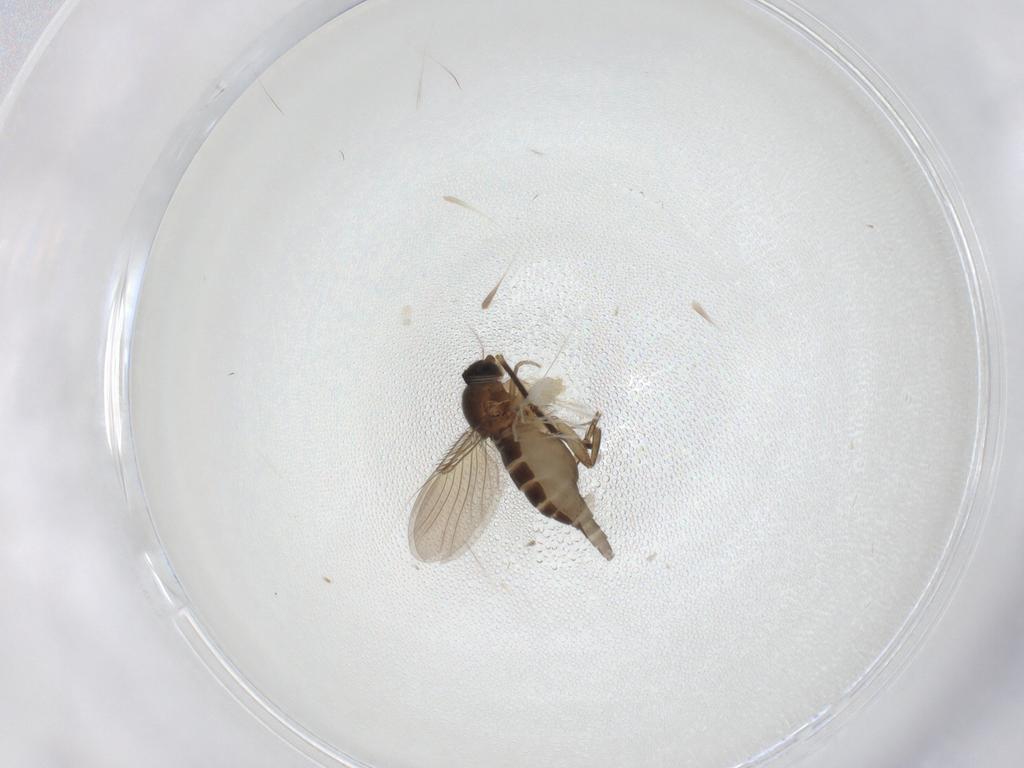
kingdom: Animalia
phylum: Arthropoda
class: Insecta
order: Diptera
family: Phoridae
